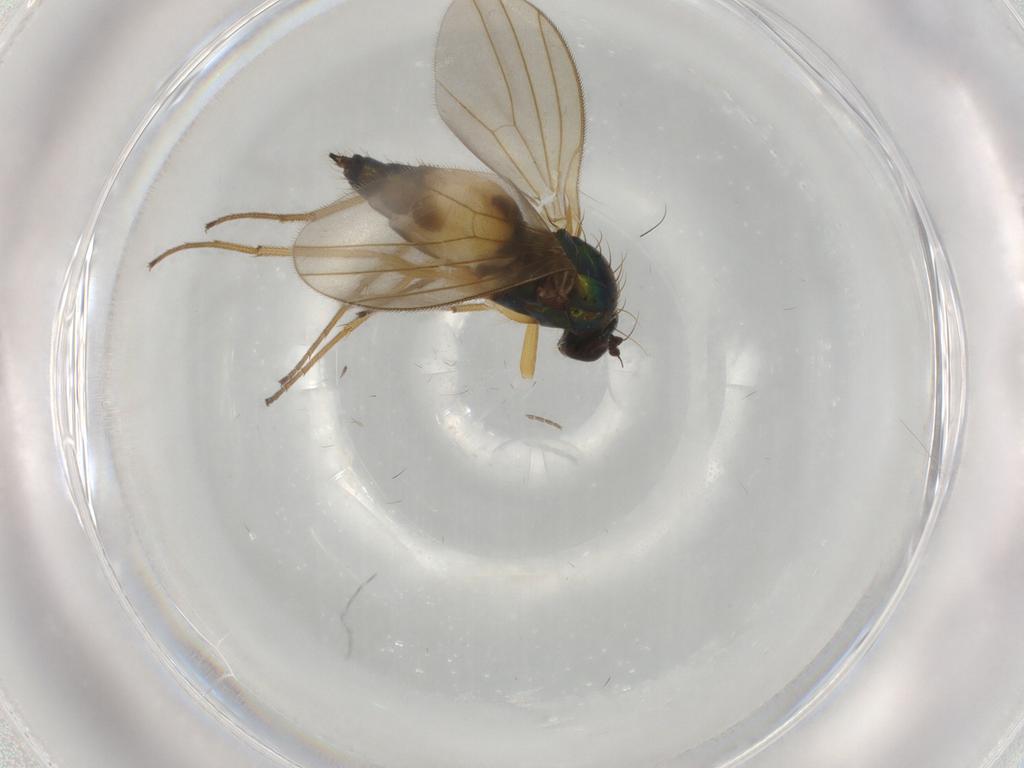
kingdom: Animalia
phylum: Arthropoda
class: Insecta
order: Diptera
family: Dolichopodidae
